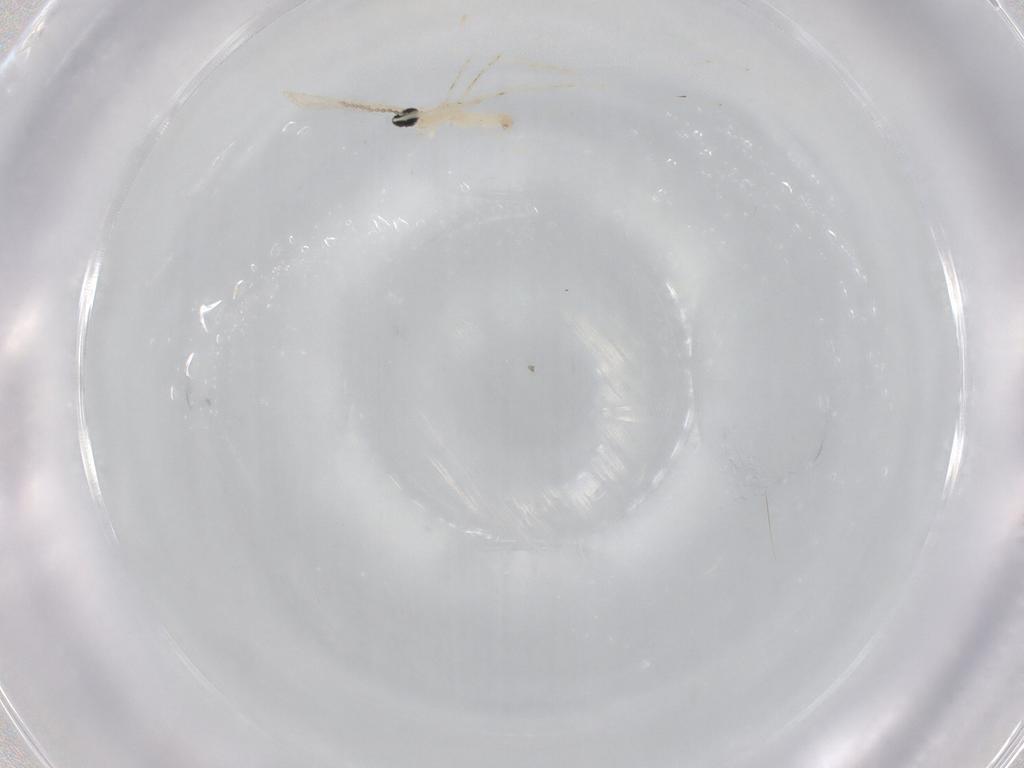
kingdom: Animalia
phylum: Arthropoda
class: Insecta
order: Diptera
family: Cecidomyiidae
